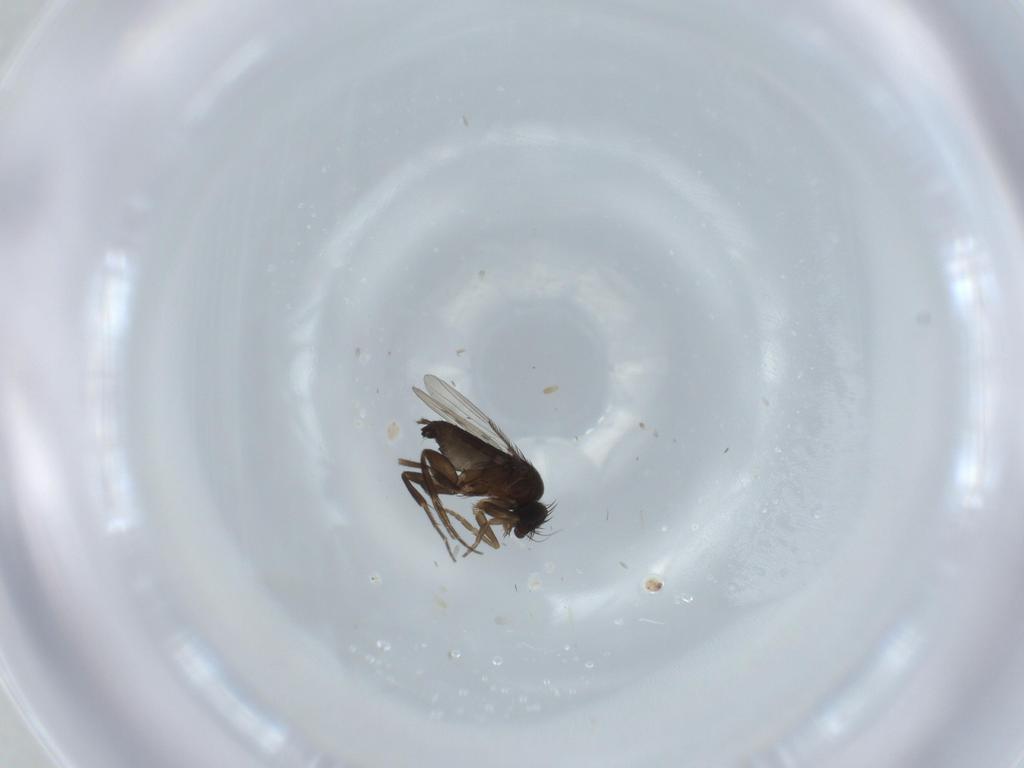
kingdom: Animalia
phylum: Arthropoda
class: Insecta
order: Diptera
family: Phoridae
